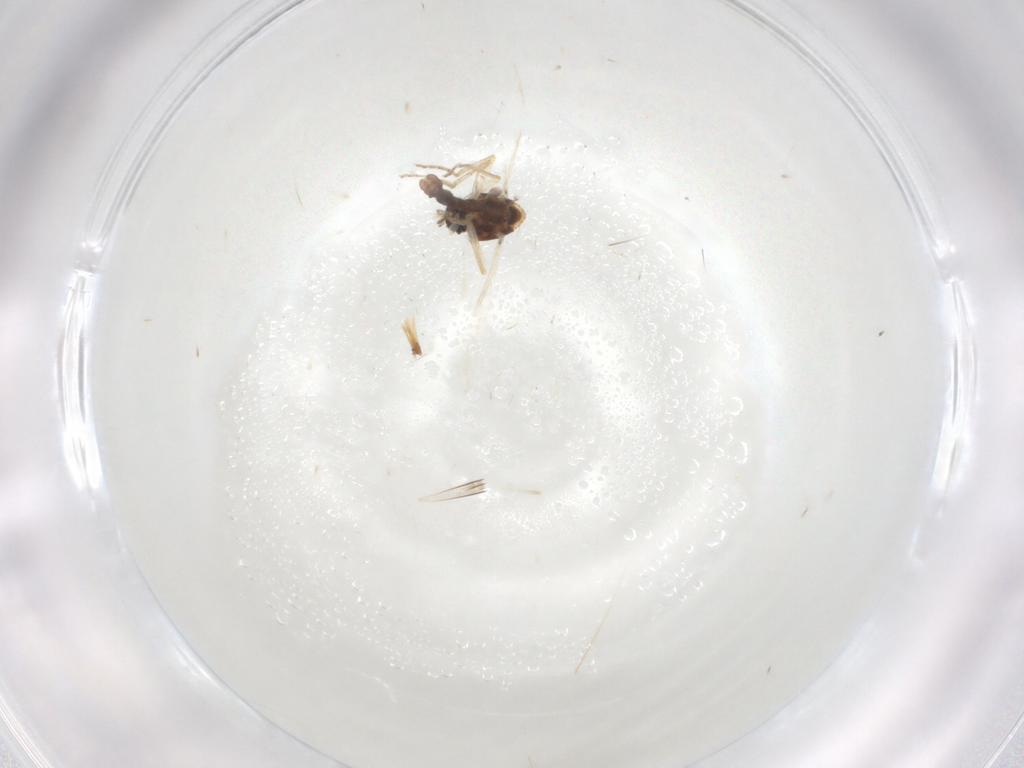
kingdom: Animalia
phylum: Arthropoda
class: Insecta
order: Diptera
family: Ceratopogonidae
